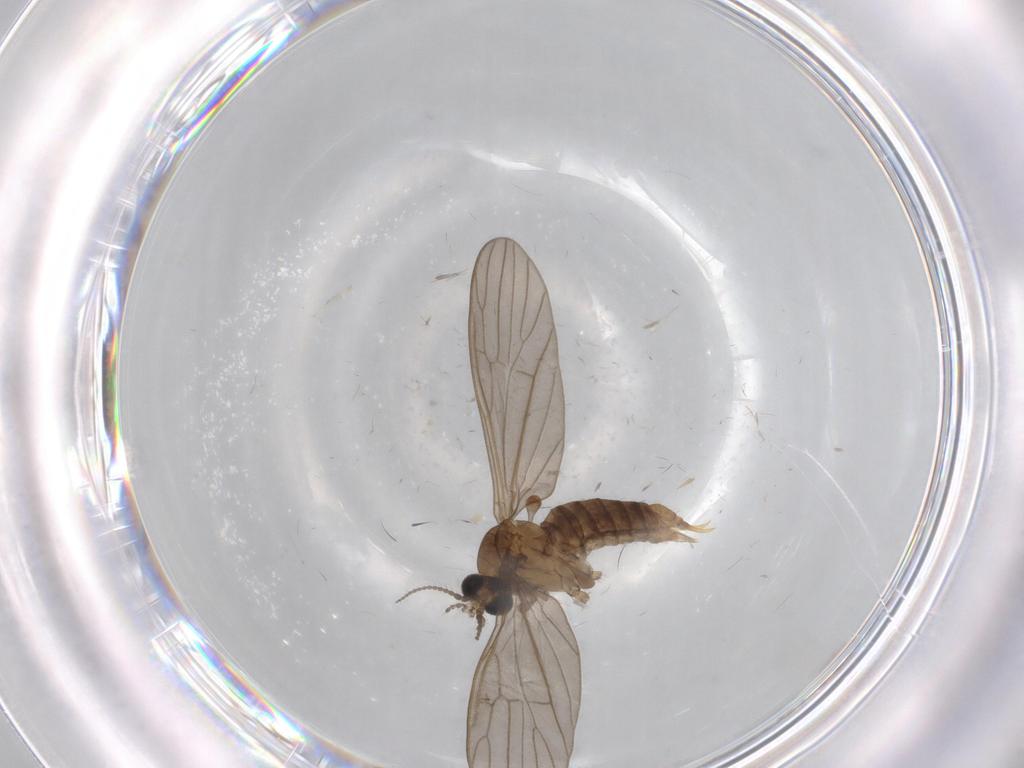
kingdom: Animalia
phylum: Arthropoda
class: Insecta
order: Diptera
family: Limoniidae
